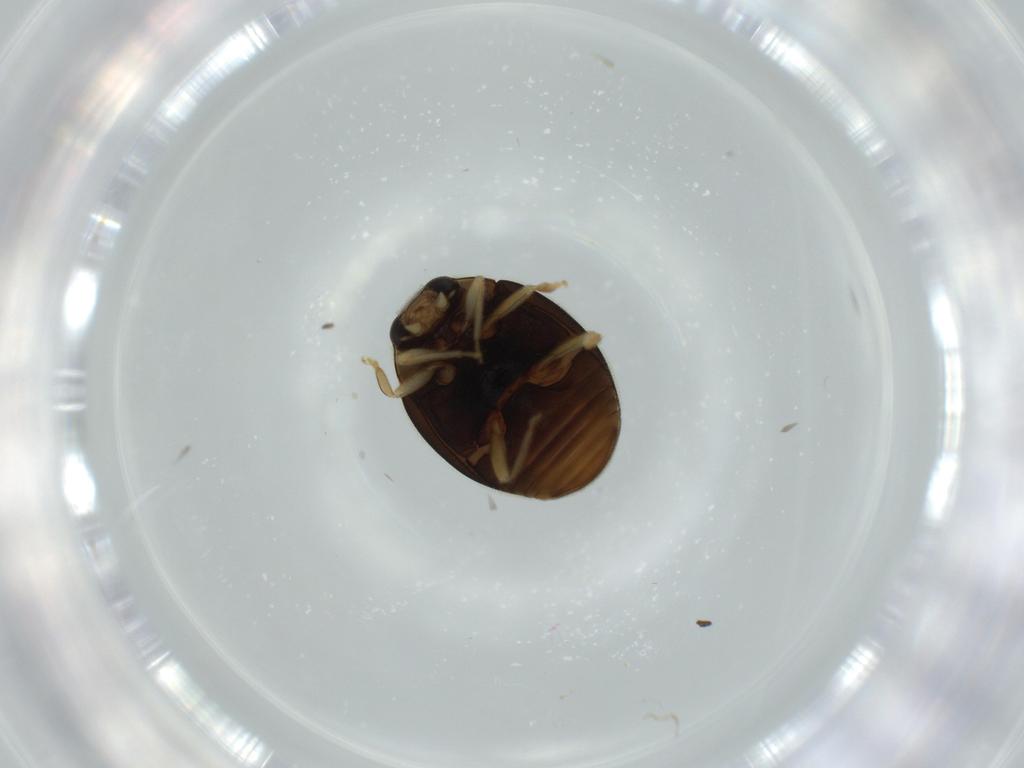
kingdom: Animalia
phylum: Arthropoda
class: Insecta
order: Coleoptera
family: Coccinellidae
